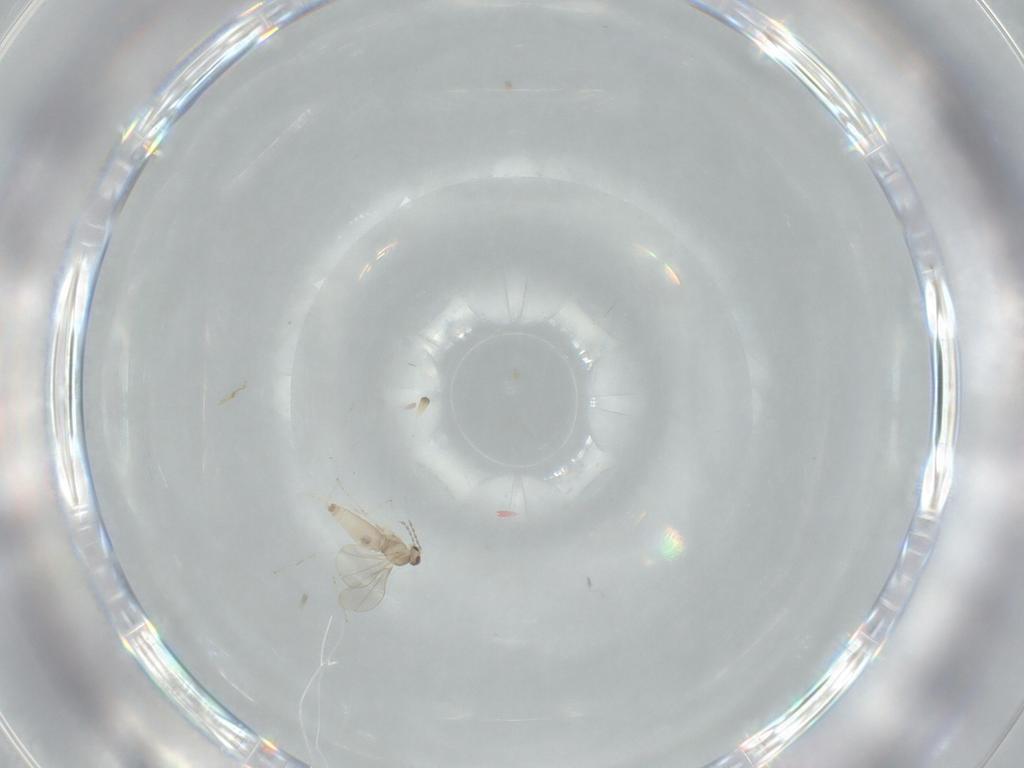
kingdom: Animalia
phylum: Arthropoda
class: Insecta
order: Diptera
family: Cecidomyiidae
